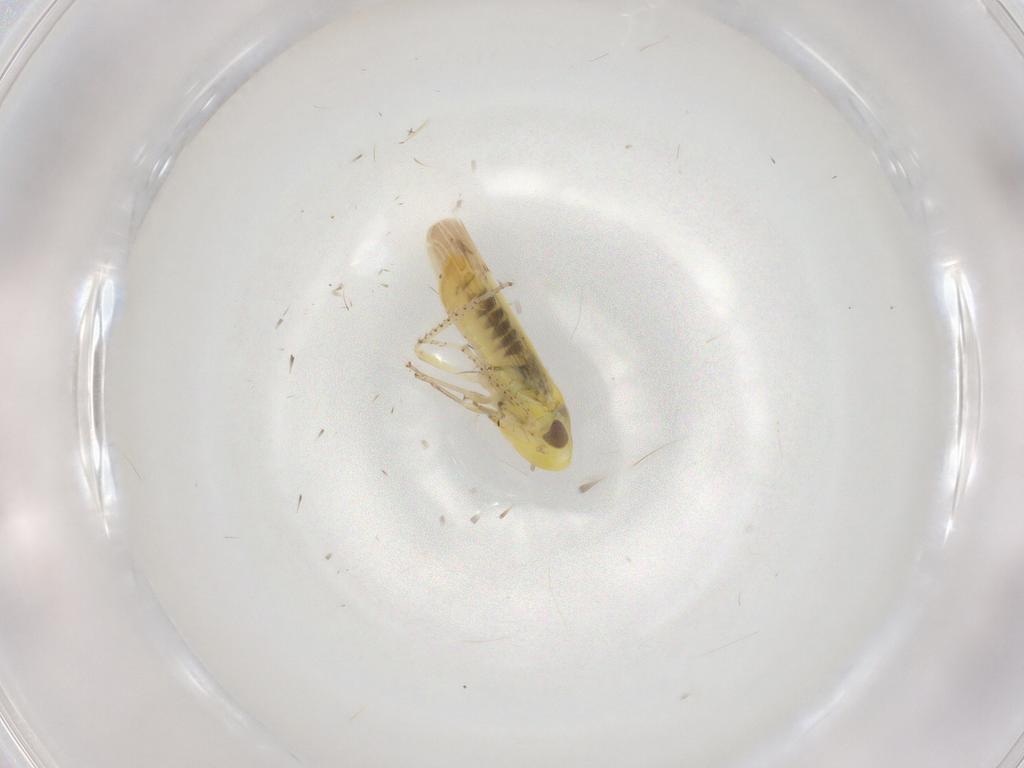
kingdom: Animalia
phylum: Arthropoda
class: Insecta
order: Hemiptera
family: Cicadellidae
